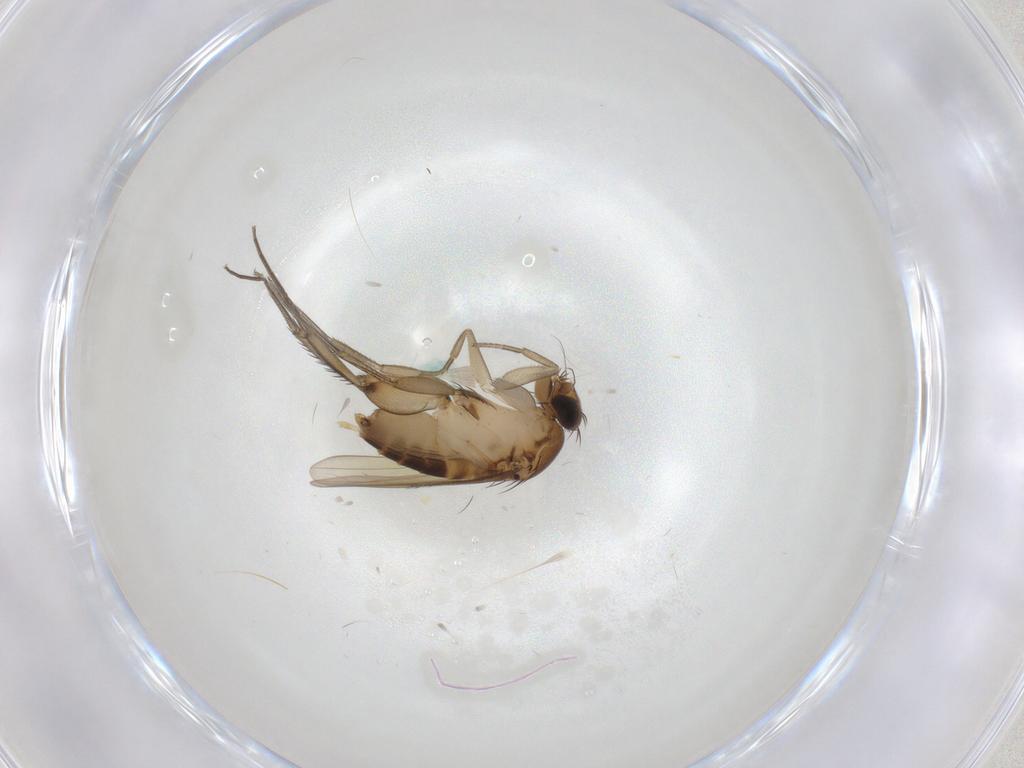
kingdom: Animalia
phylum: Arthropoda
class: Insecta
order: Diptera
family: Phoridae
